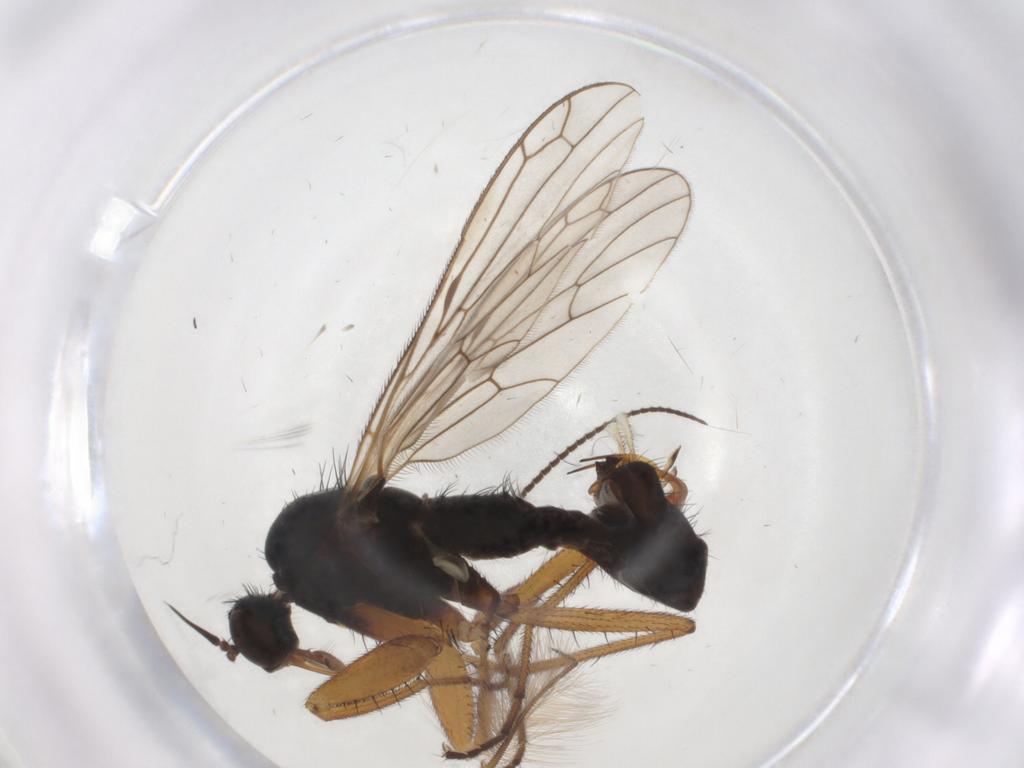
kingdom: Animalia
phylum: Arthropoda
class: Insecta
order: Diptera
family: Empididae
